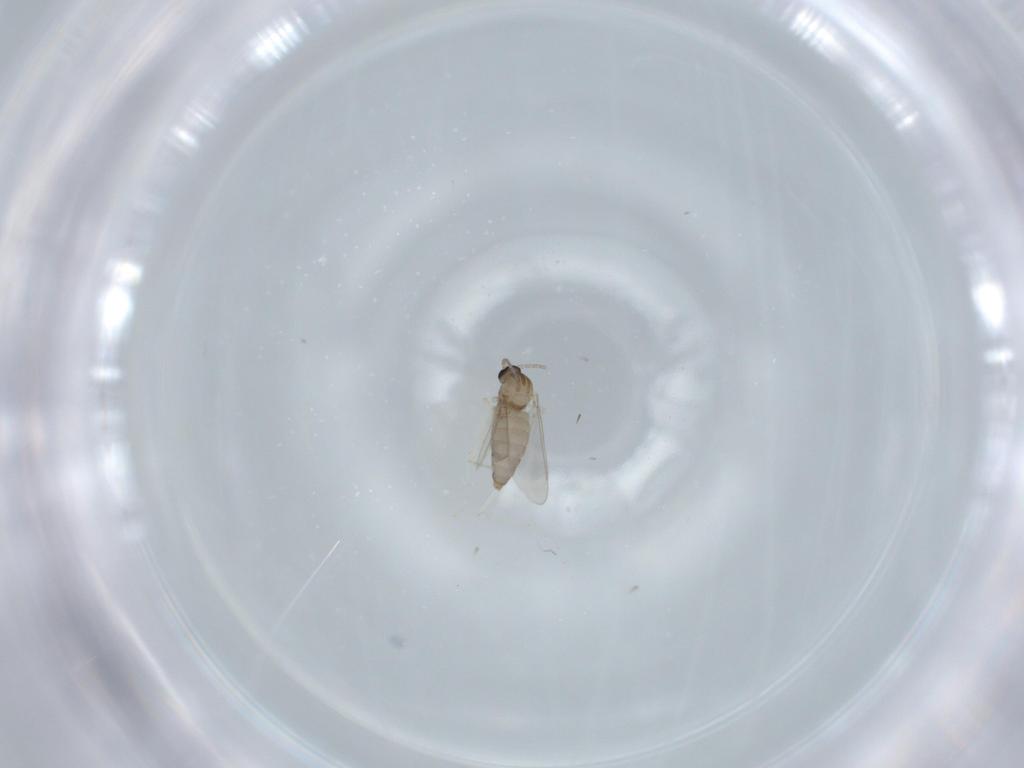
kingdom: Animalia
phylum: Arthropoda
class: Insecta
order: Diptera
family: Cecidomyiidae
